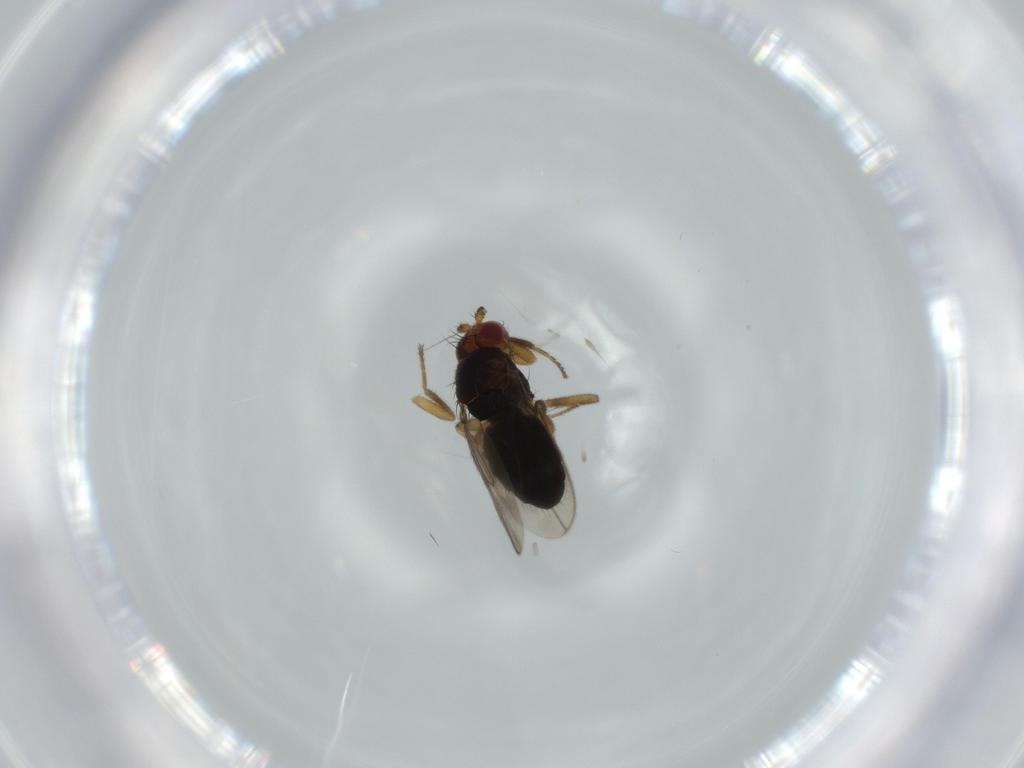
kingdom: Animalia
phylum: Arthropoda
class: Insecta
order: Diptera
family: Sphaeroceridae
